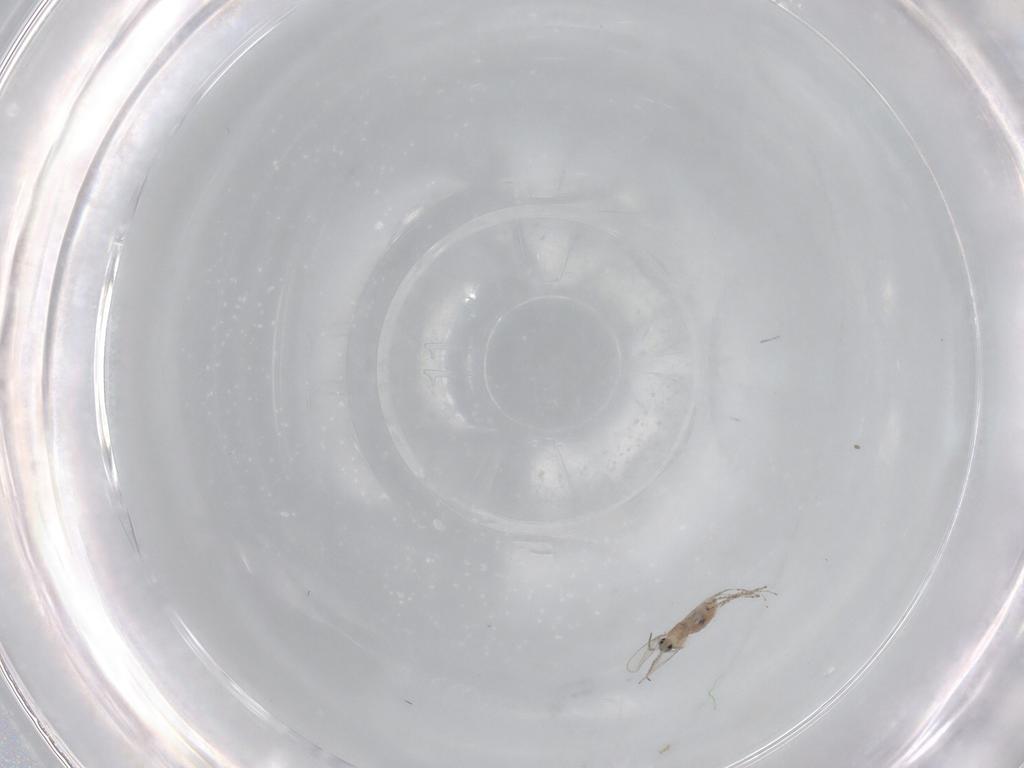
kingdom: Animalia
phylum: Arthropoda
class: Insecta
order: Diptera
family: Cecidomyiidae
